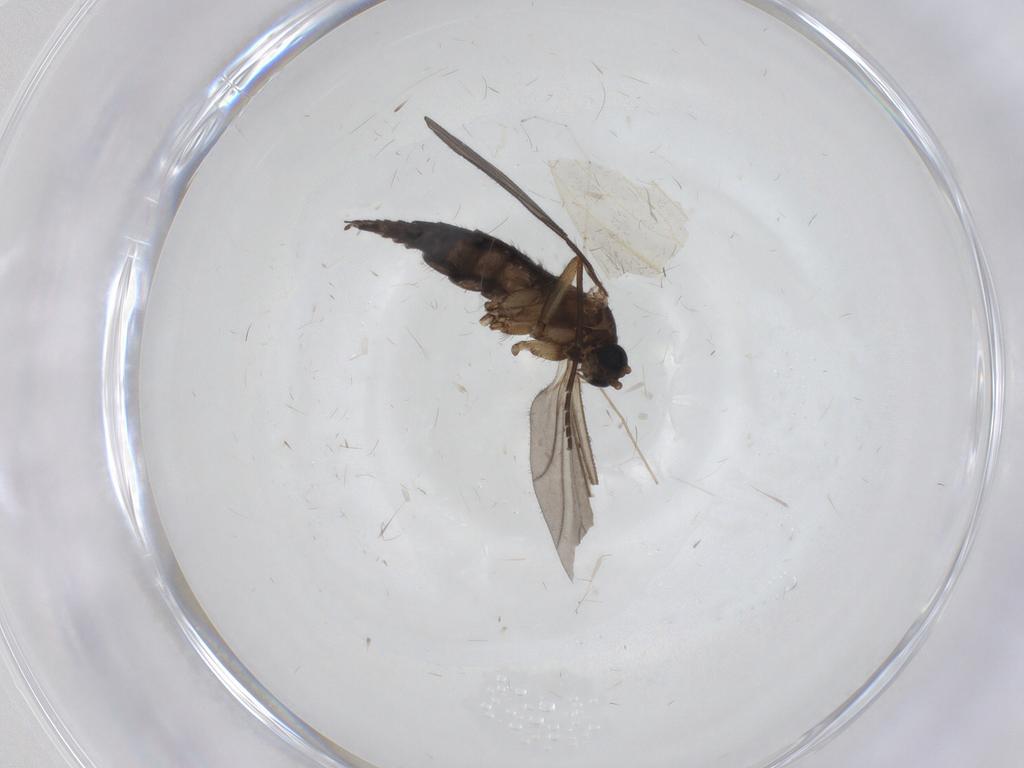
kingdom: Animalia
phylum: Arthropoda
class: Insecta
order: Diptera
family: Sciaridae
